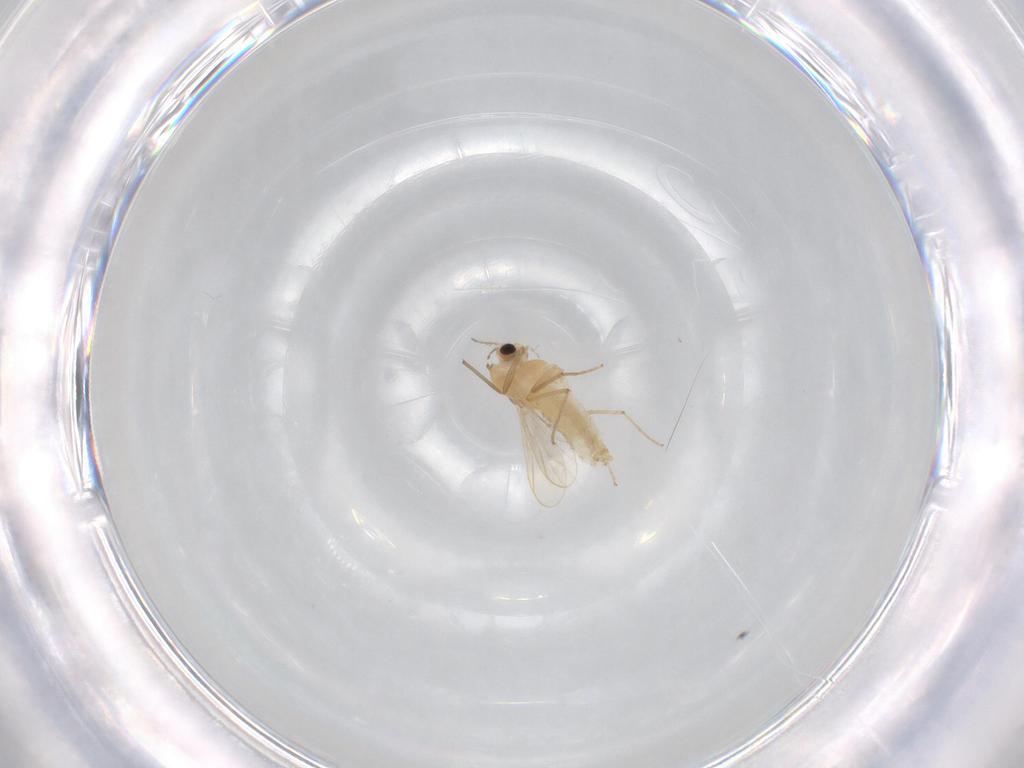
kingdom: Animalia
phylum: Arthropoda
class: Insecta
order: Diptera
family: Chironomidae
